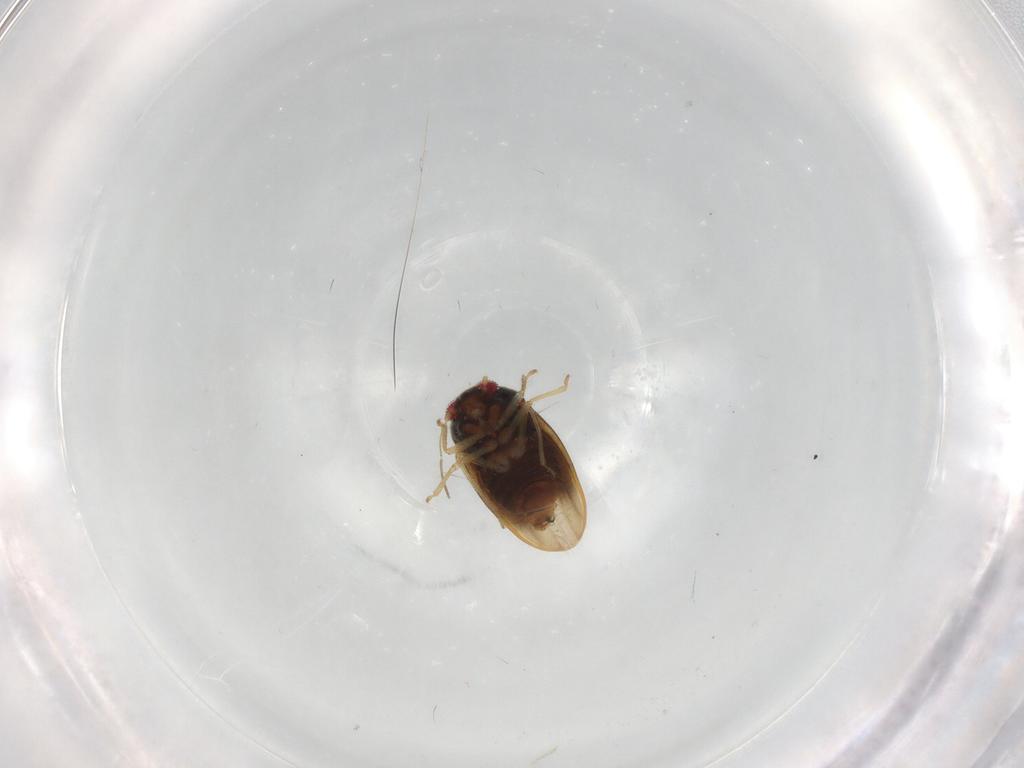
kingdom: Animalia
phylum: Arthropoda
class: Insecta
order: Hemiptera
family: Schizopteridae
